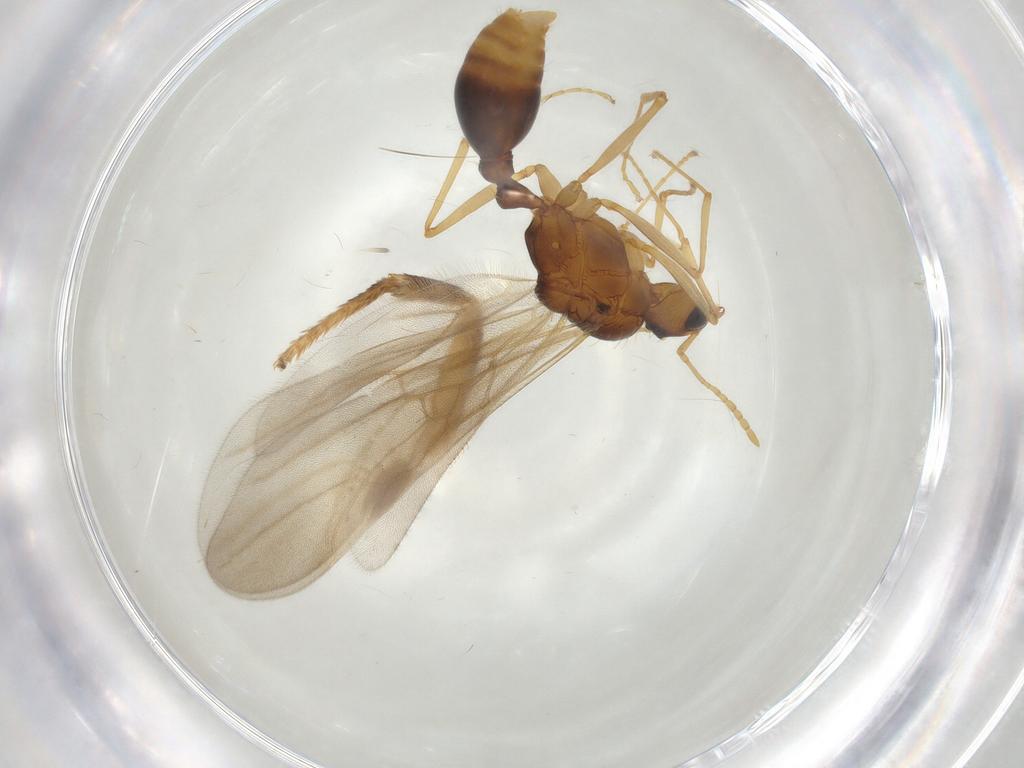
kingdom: Animalia
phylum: Arthropoda
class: Insecta
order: Hymenoptera
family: Formicidae
